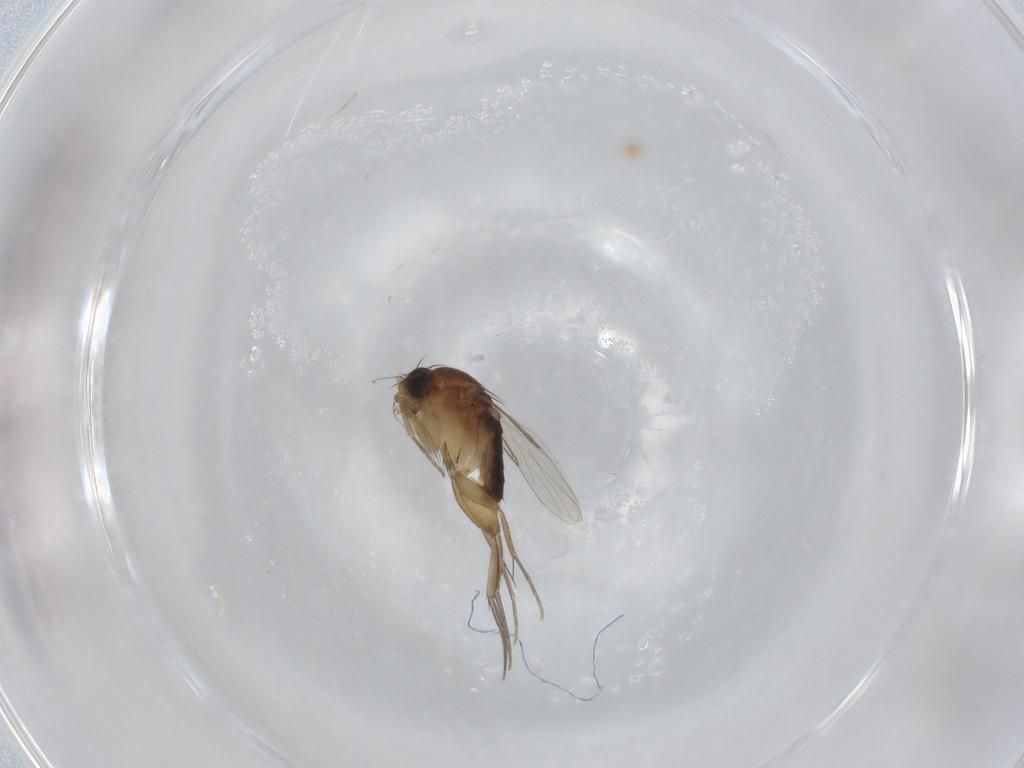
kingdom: Animalia
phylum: Arthropoda
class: Insecta
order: Diptera
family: Phoridae
